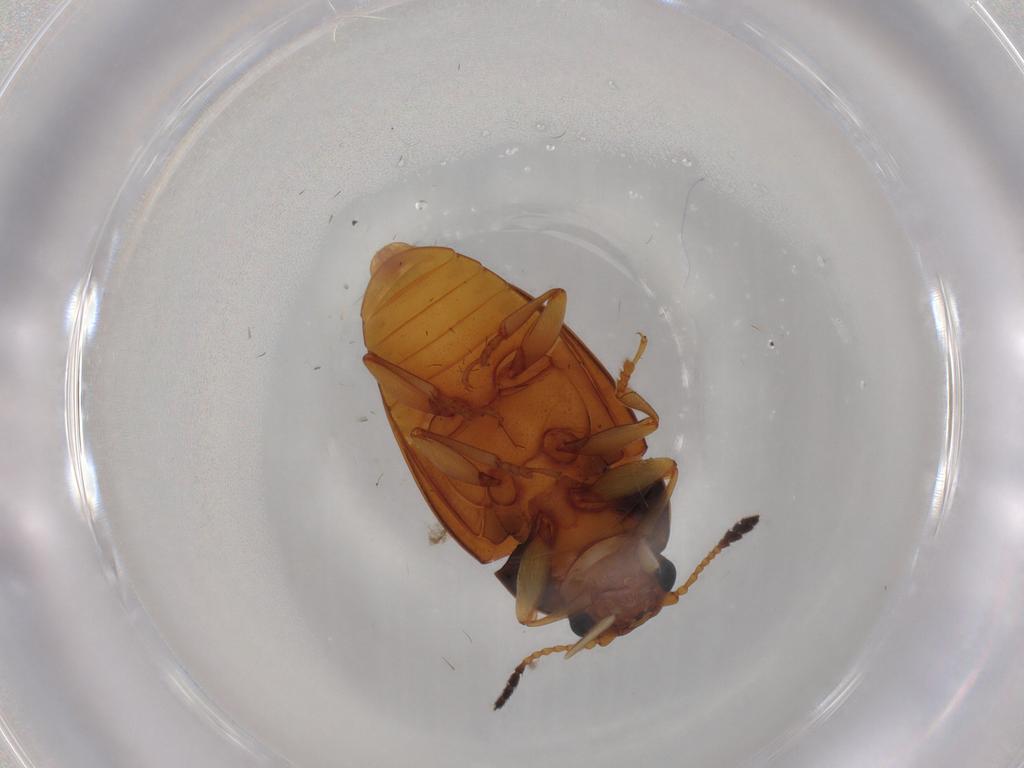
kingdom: Animalia
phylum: Arthropoda
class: Insecta
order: Coleoptera
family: Erotylidae
